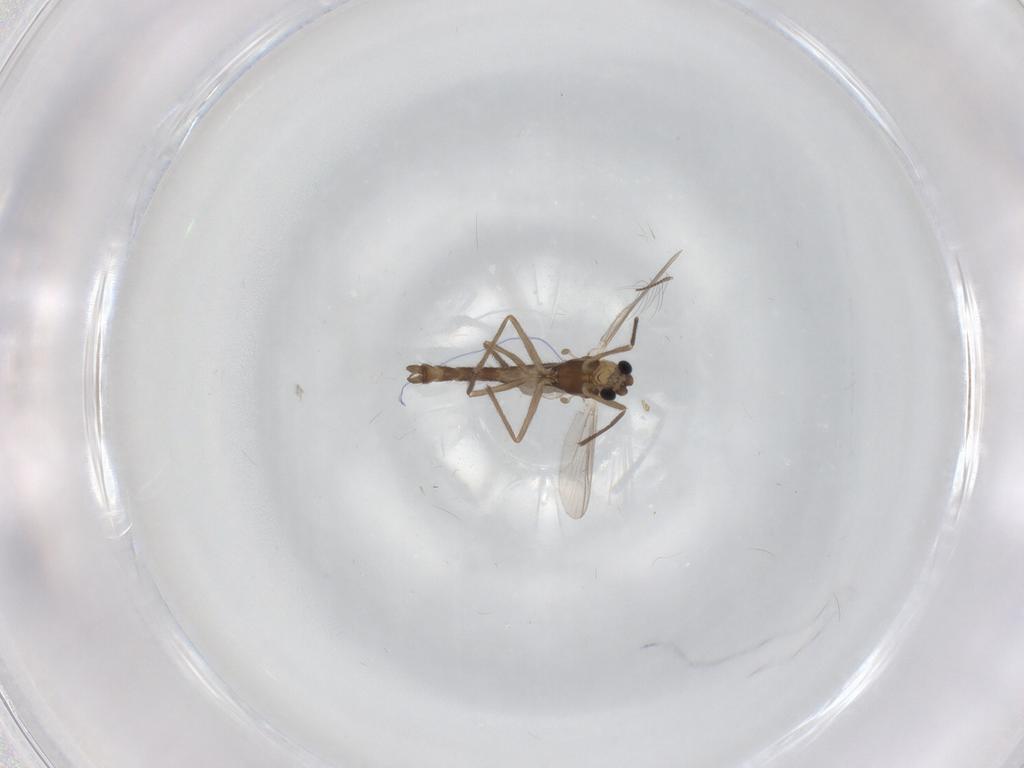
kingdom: Animalia
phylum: Arthropoda
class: Insecta
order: Diptera
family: Chironomidae
